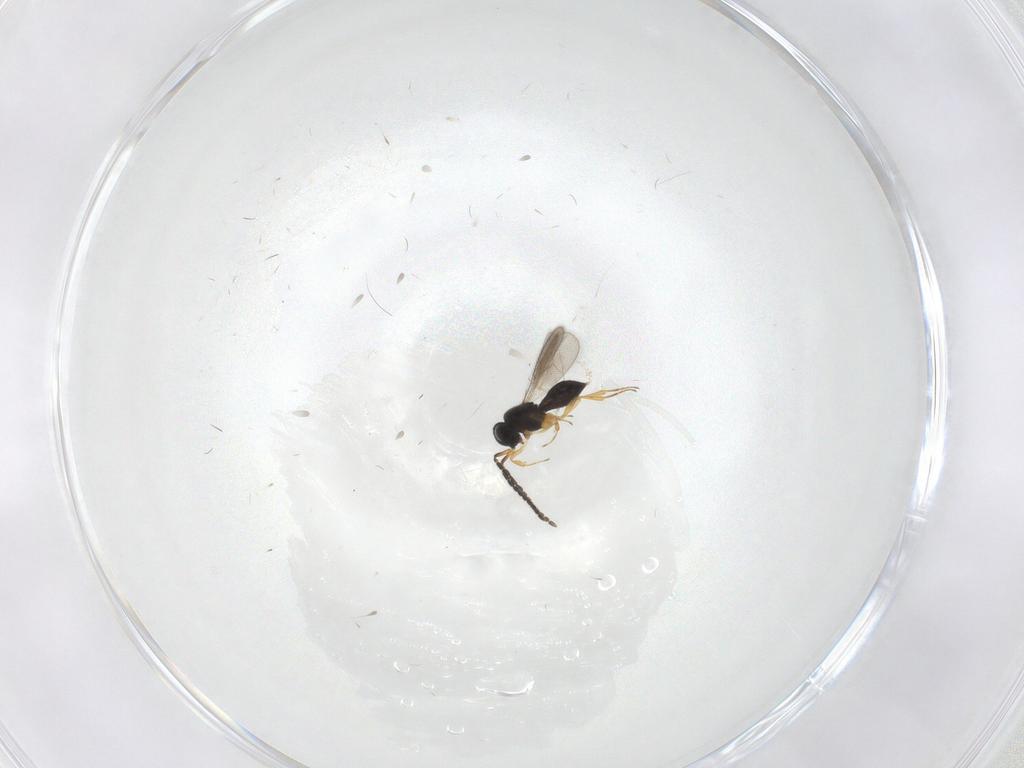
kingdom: Animalia
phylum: Arthropoda
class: Insecta
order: Hymenoptera
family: Scelionidae
